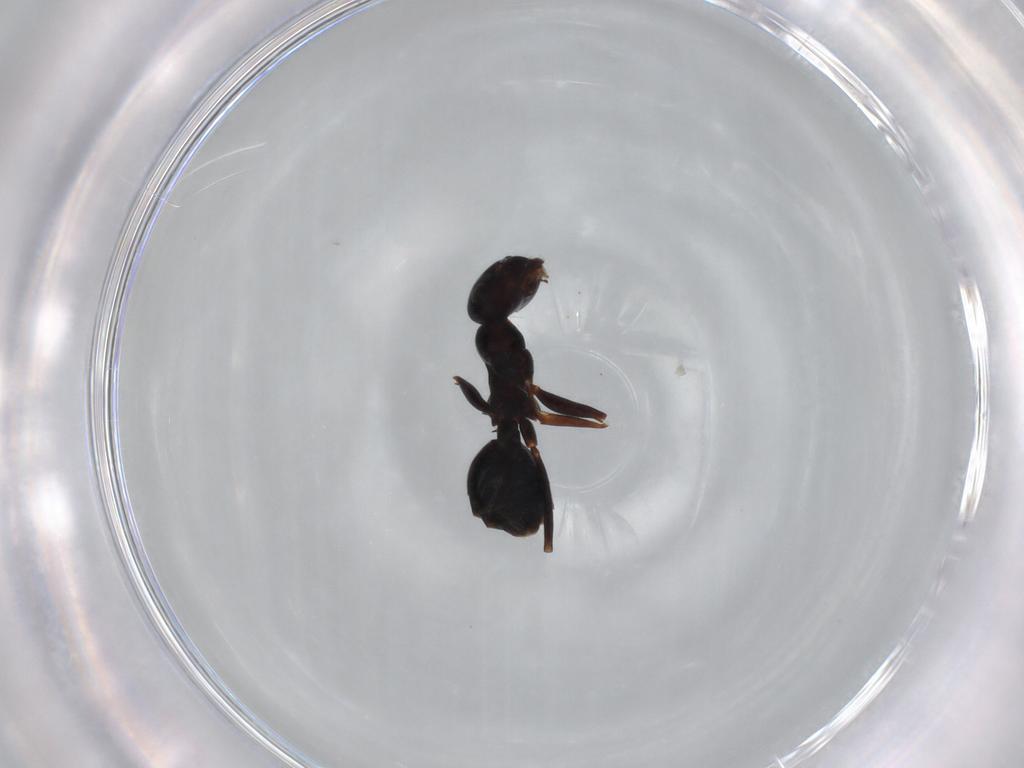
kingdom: Animalia
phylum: Arthropoda
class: Insecta
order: Hymenoptera
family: Formicidae
